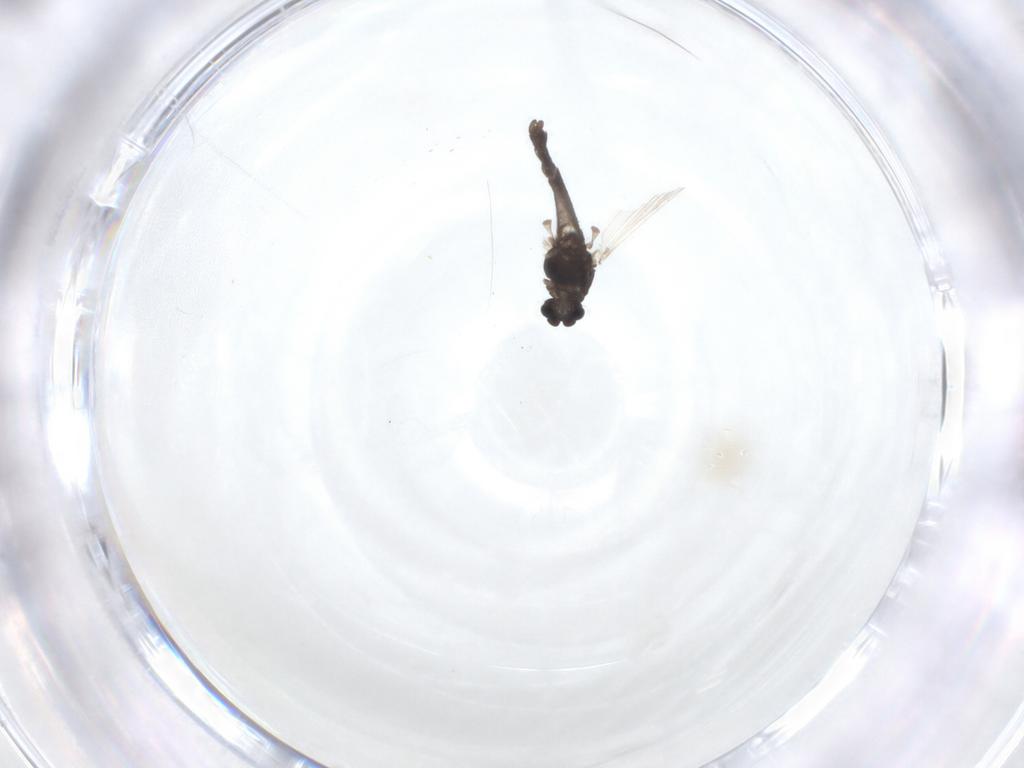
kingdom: Animalia
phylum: Arthropoda
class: Insecta
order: Diptera
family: Chironomidae
